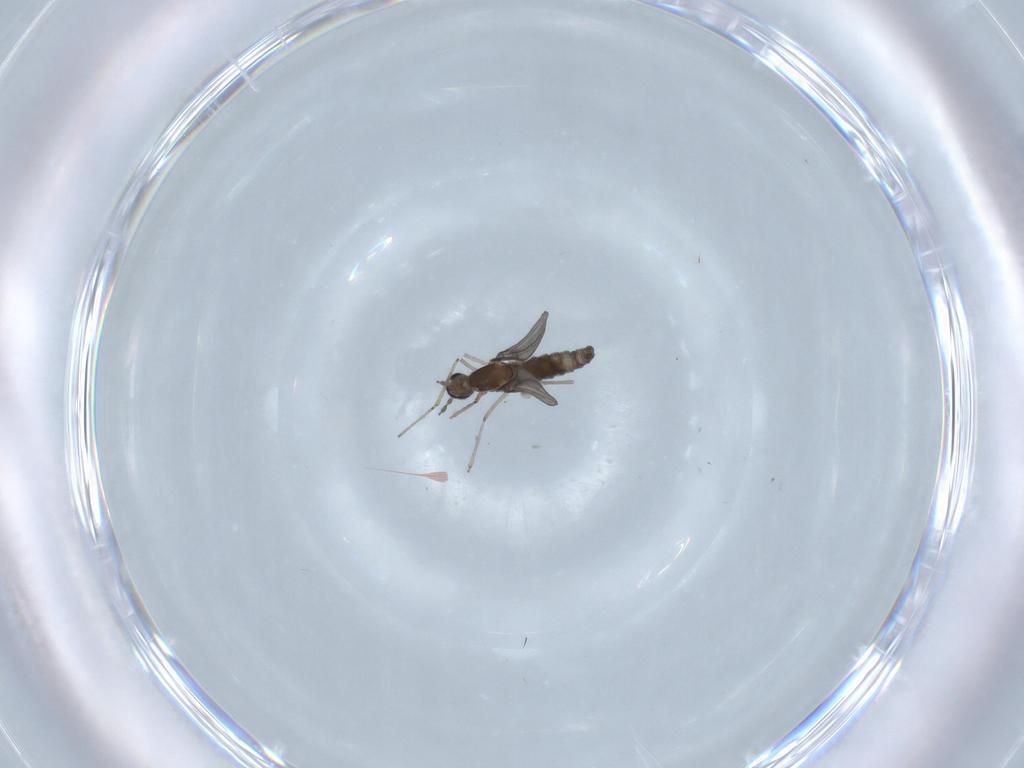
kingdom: Animalia
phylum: Arthropoda
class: Insecta
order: Diptera
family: Cecidomyiidae
